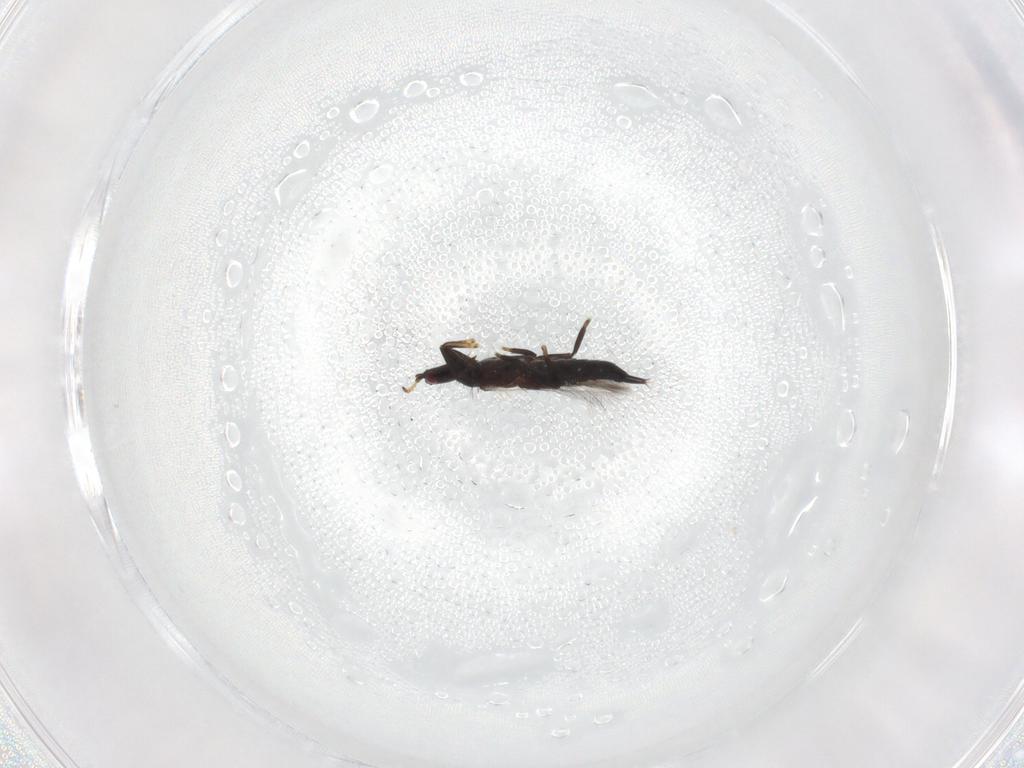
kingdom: Animalia
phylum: Arthropoda
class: Insecta
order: Thysanoptera
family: Phlaeothripidae
